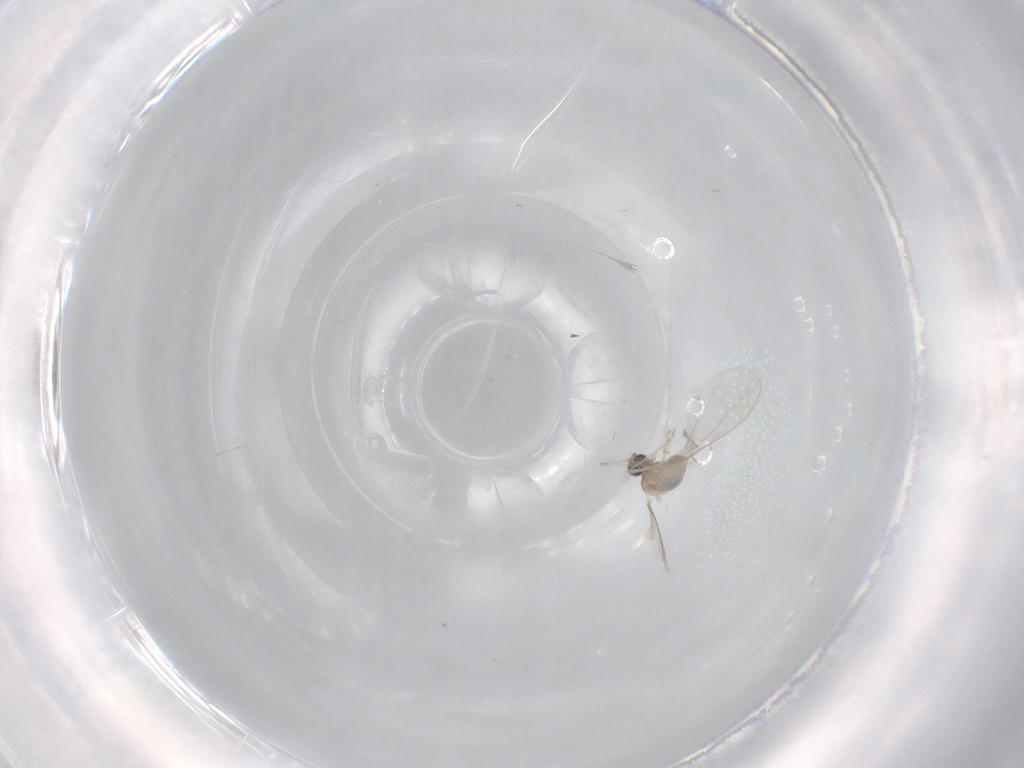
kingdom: Animalia
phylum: Arthropoda
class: Insecta
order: Diptera
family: Cecidomyiidae
